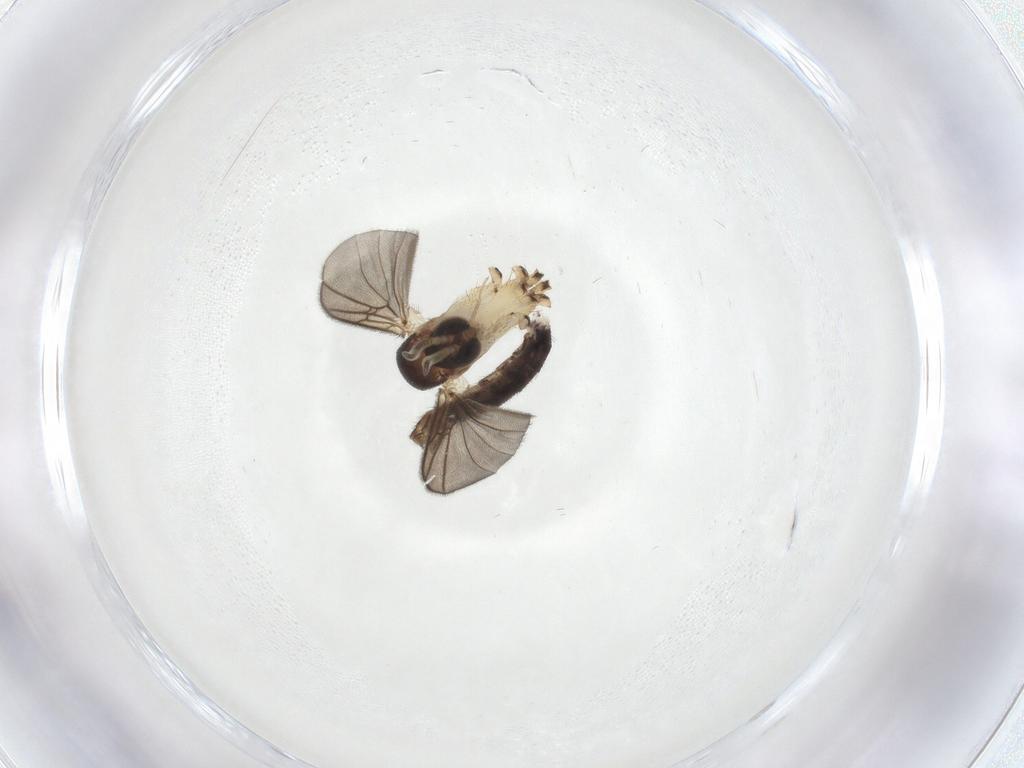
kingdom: Animalia
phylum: Arthropoda
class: Insecta
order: Diptera
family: Mycetophilidae
